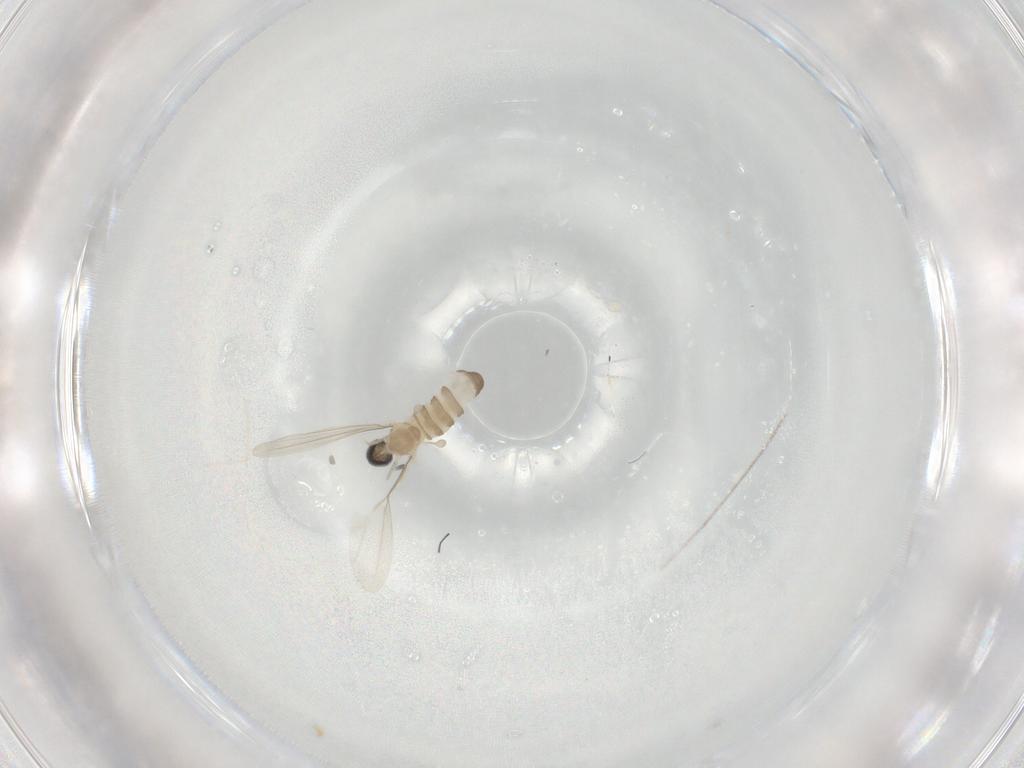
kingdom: Animalia
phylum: Arthropoda
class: Insecta
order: Diptera
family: Cecidomyiidae
